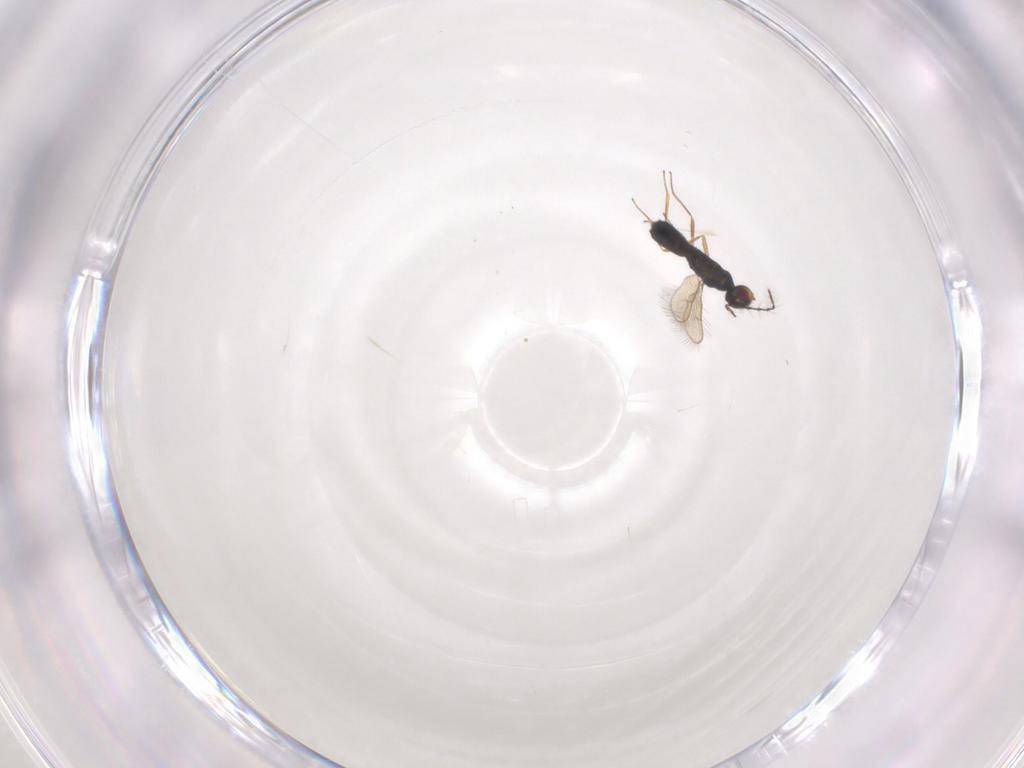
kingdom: Animalia
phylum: Arthropoda
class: Insecta
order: Hymenoptera
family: Pteromalidae
